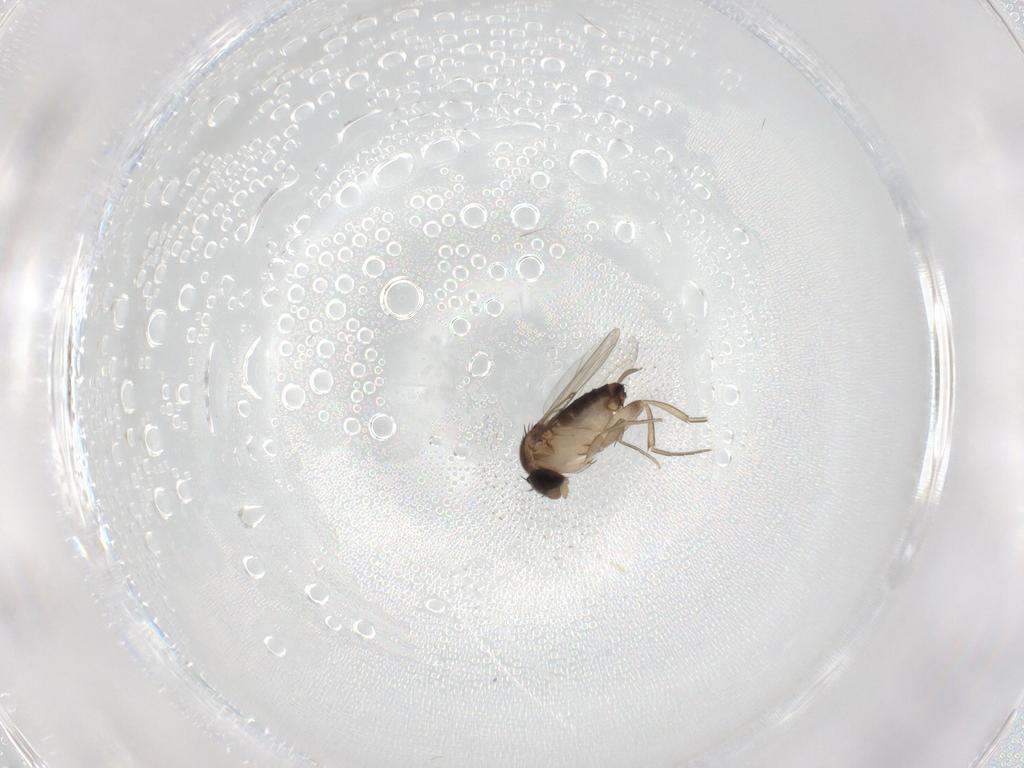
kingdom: Animalia
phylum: Arthropoda
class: Insecta
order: Diptera
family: Cecidomyiidae
